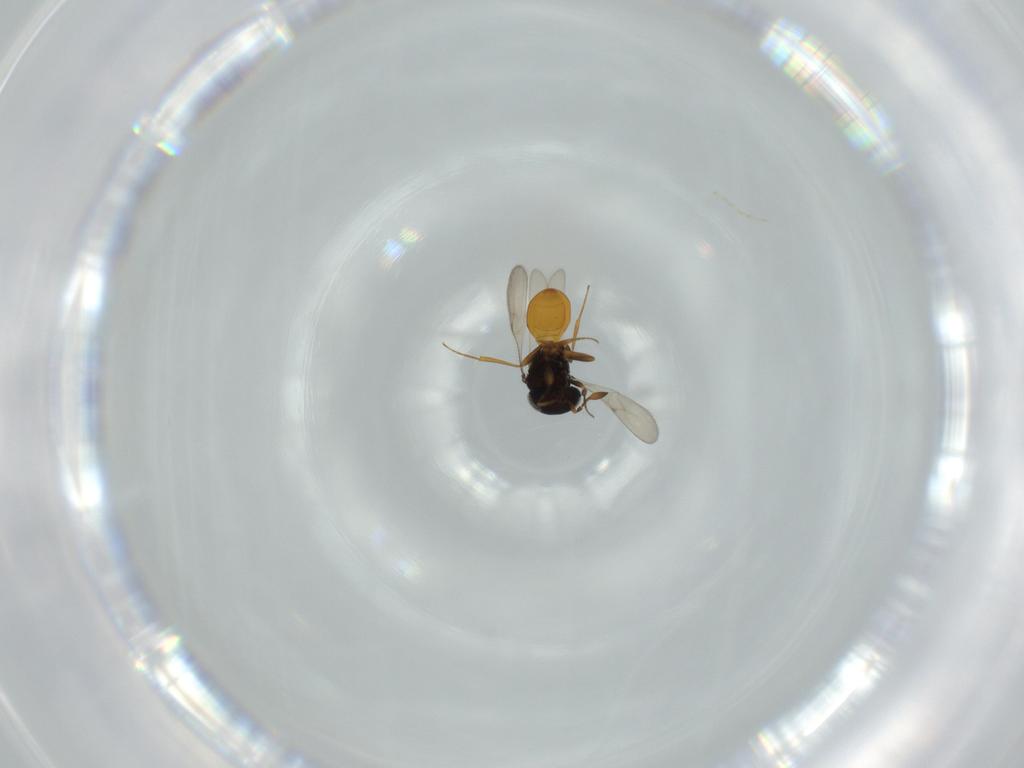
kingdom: Animalia
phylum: Arthropoda
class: Insecta
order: Hymenoptera
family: Scelionidae
